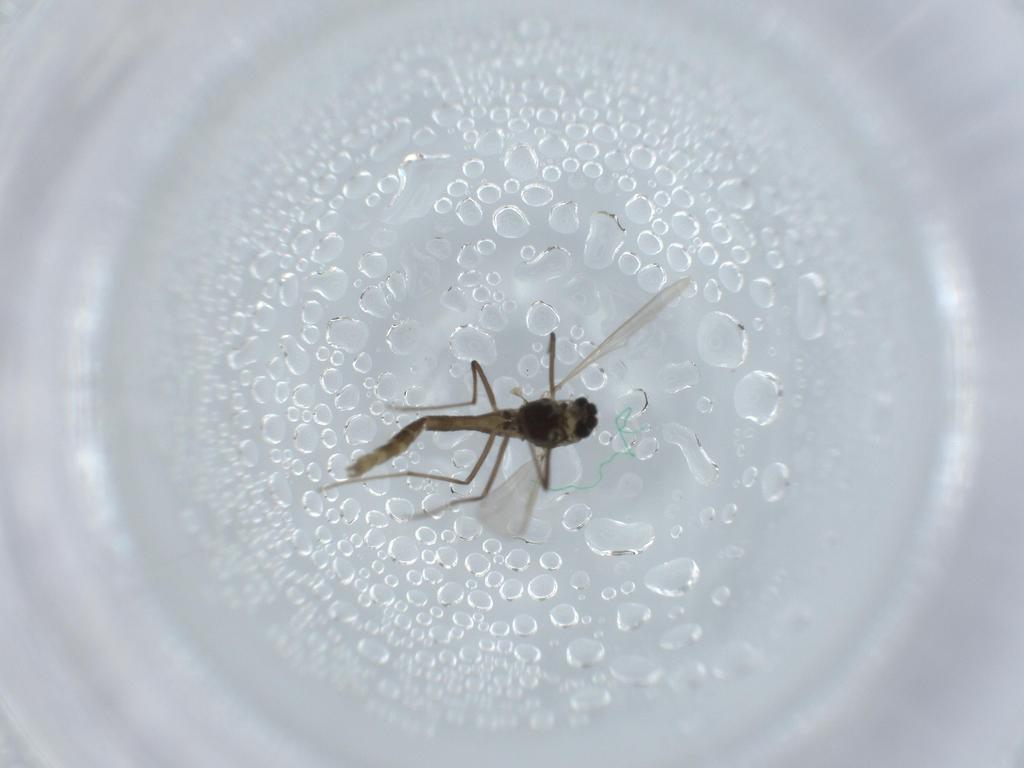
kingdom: Animalia
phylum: Arthropoda
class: Insecta
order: Diptera
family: Chironomidae
